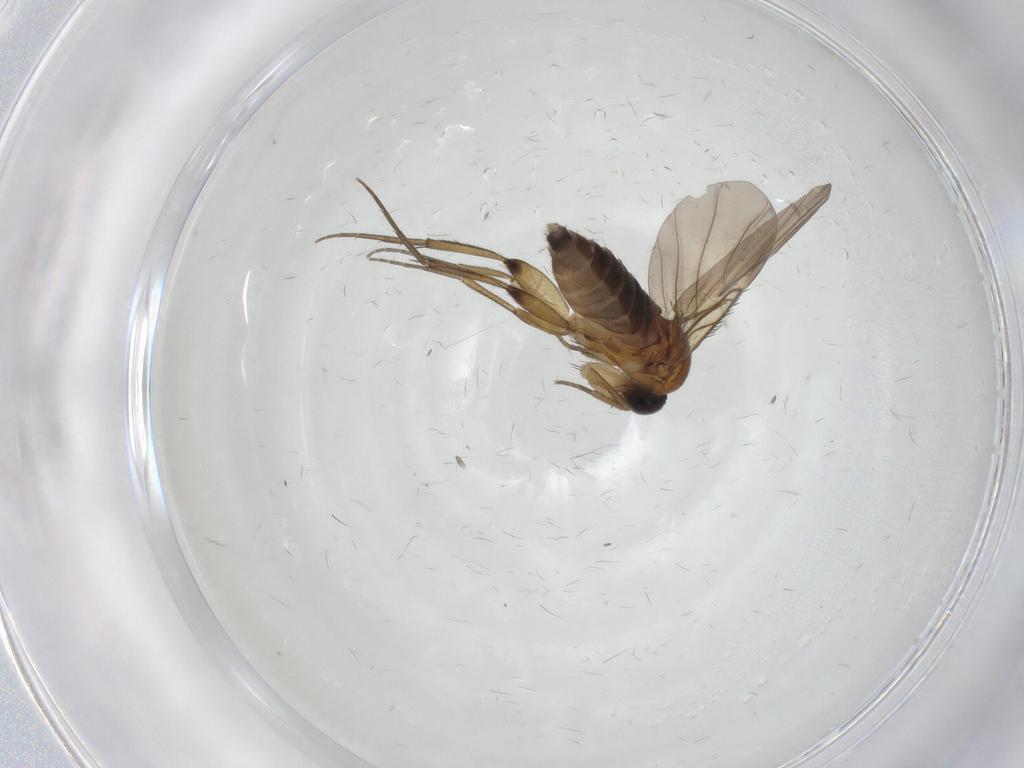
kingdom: Animalia
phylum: Arthropoda
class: Insecta
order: Diptera
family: Phoridae
